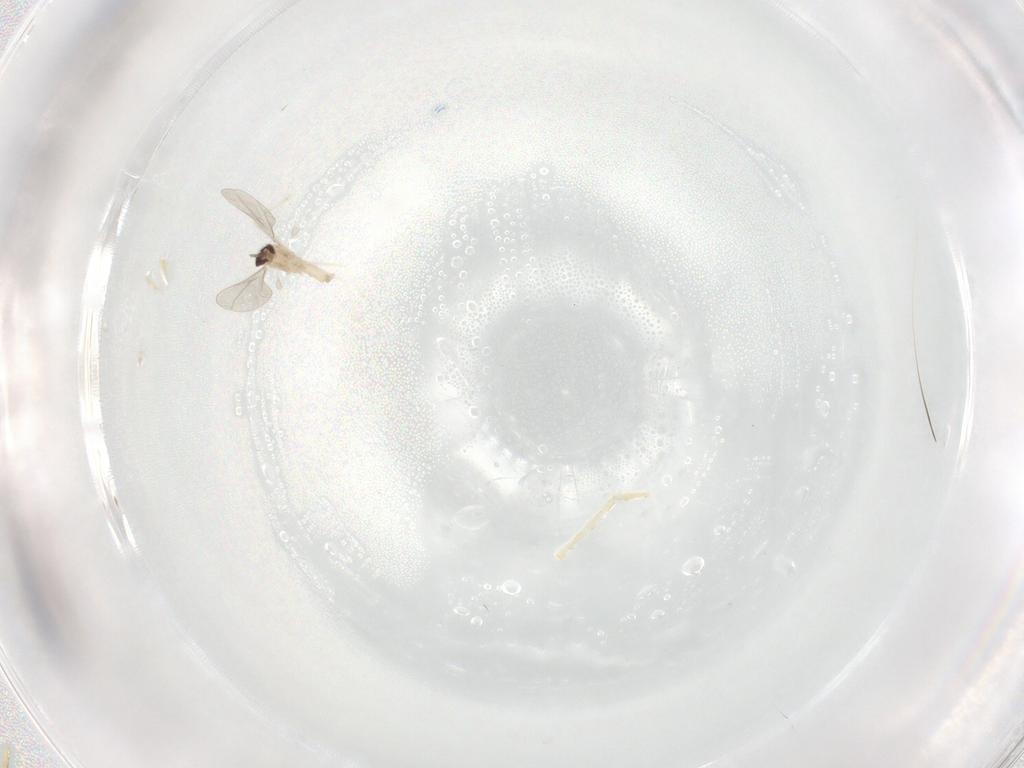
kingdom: Animalia
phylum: Arthropoda
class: Insecta
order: Diptera
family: Cecidomyiidae
